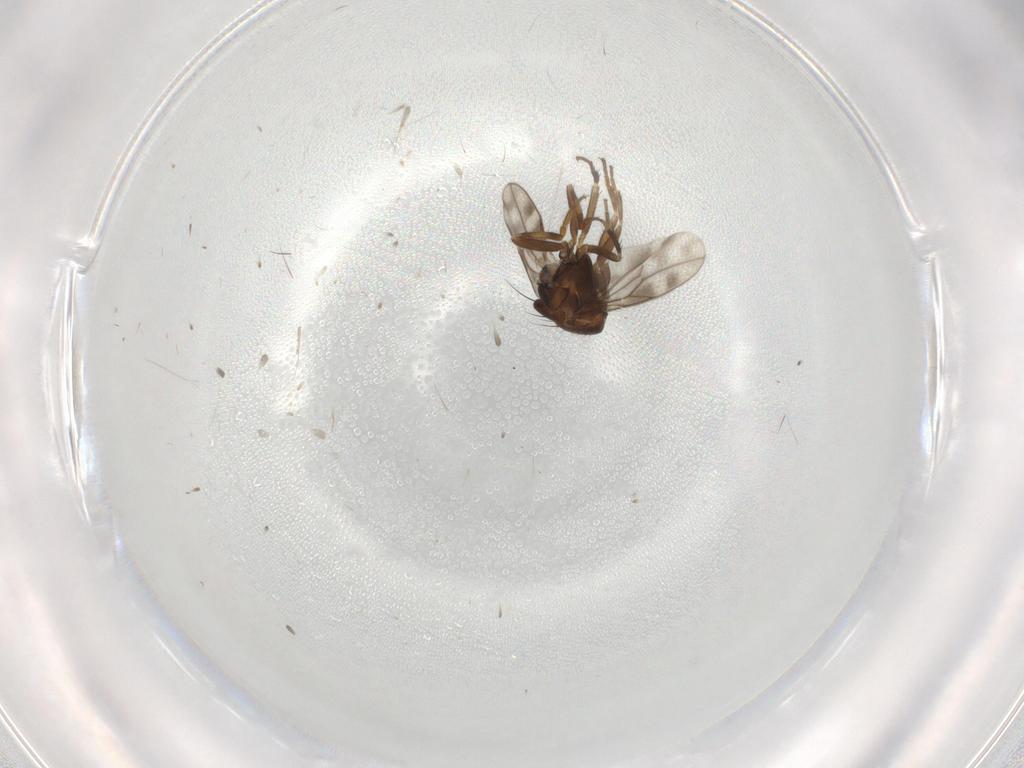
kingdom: Animalia
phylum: Arthropoda
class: Insecta
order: Diptera
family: Sphaeroceridae
